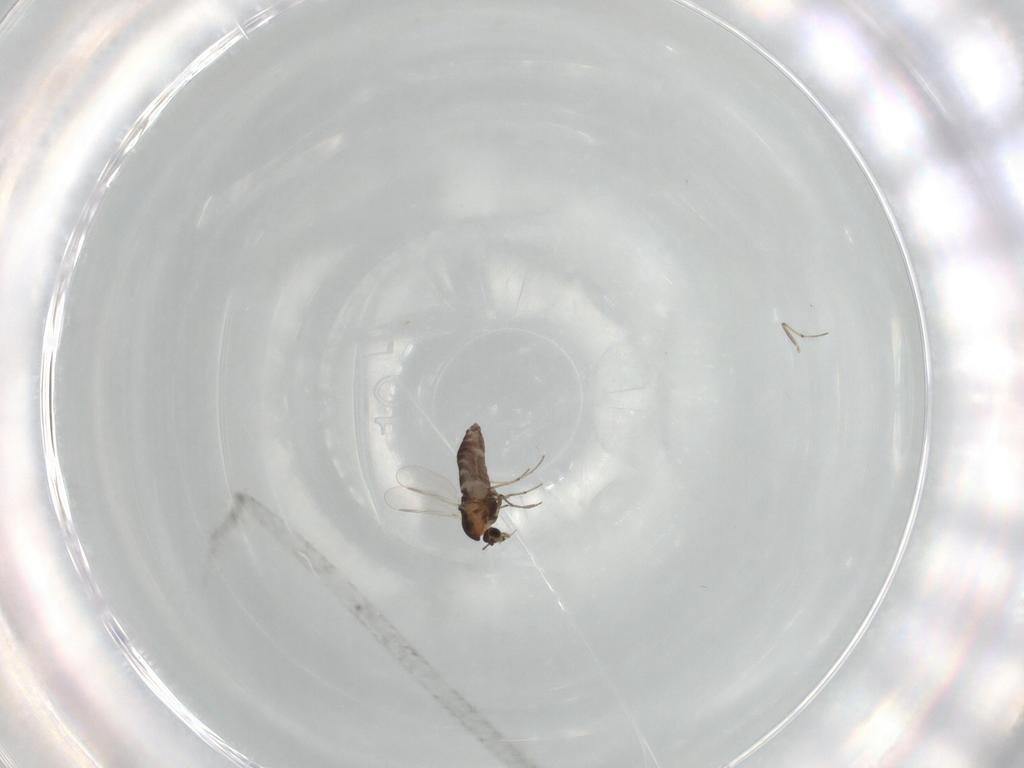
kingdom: Animalia
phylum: Arthropoda
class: Insecta
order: Diptera
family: Chironomidae
